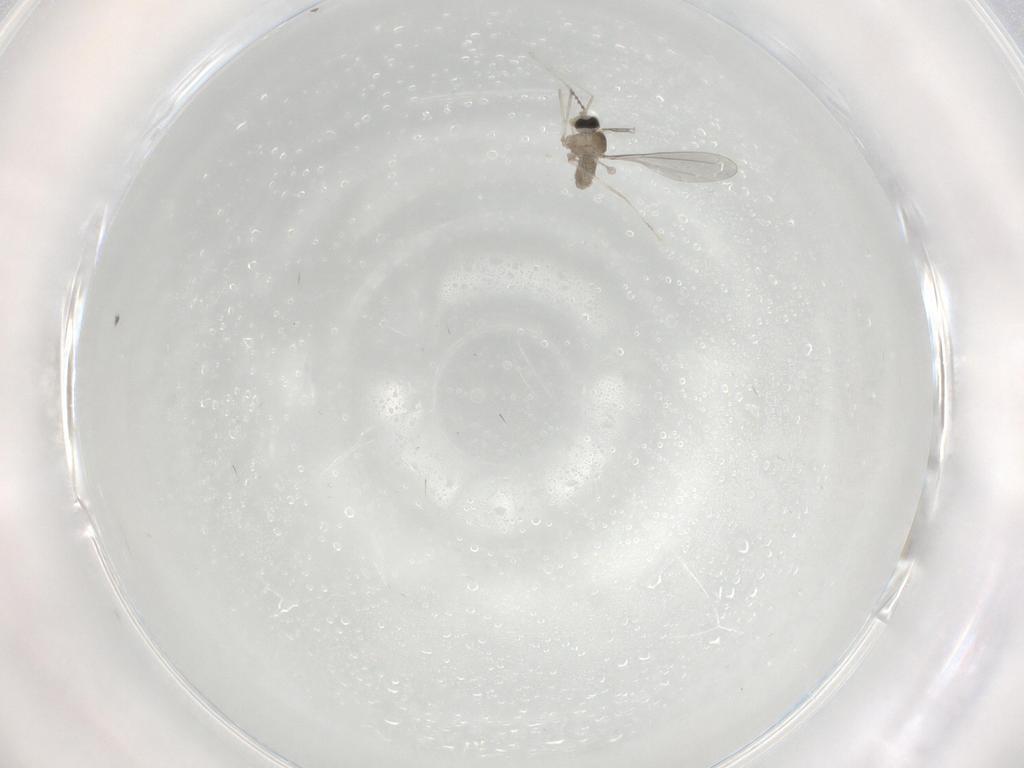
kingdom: Animalia
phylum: Arthropoda
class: Insecta
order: Diptera
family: Cecidomyiidae
